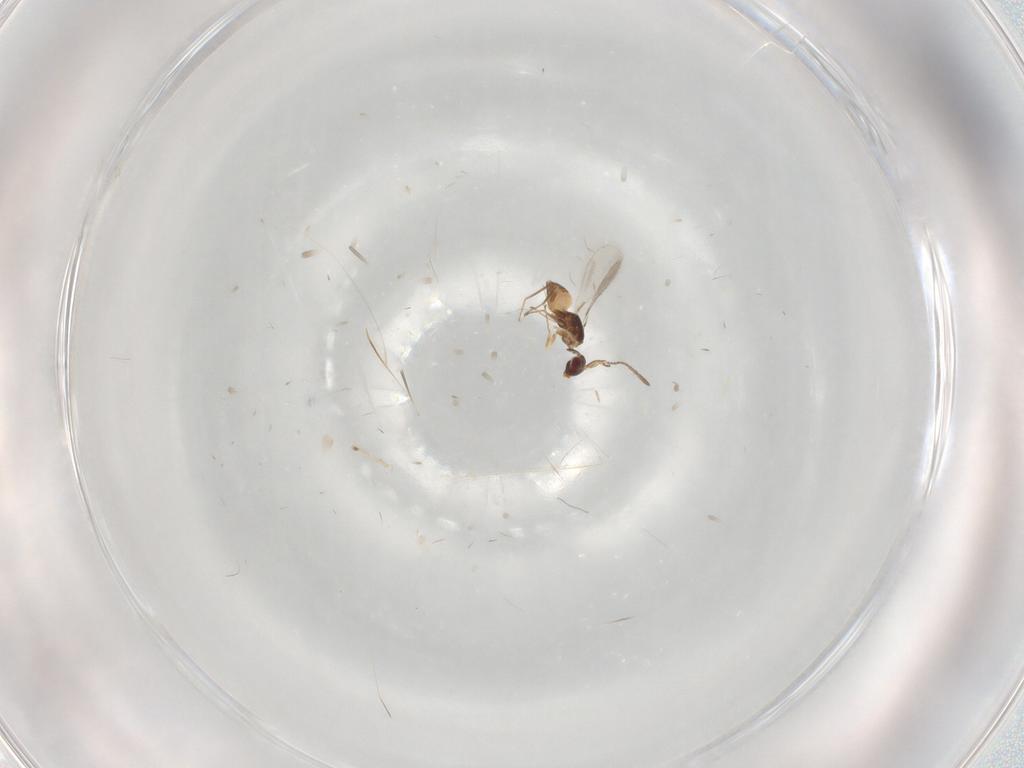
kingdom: Animalia
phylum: Arthropoda
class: Insecta
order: Hymenoptera
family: Mymaridae
